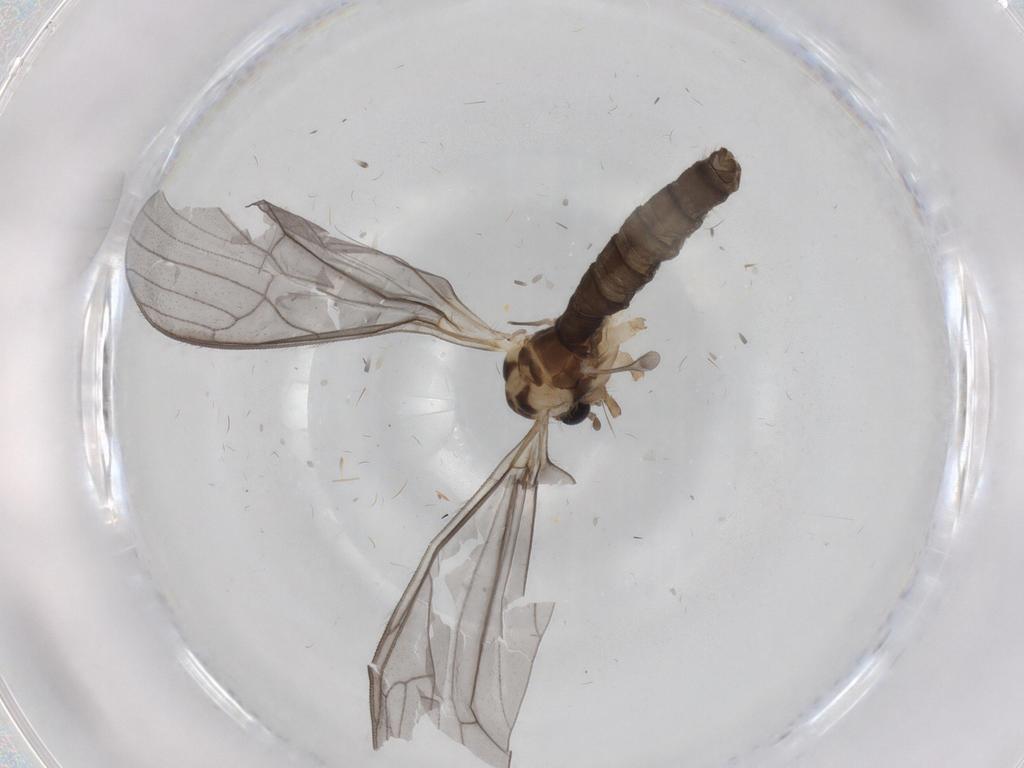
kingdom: Animalia
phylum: Arthropoda
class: Insecta
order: Diptera
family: Limoniidae
